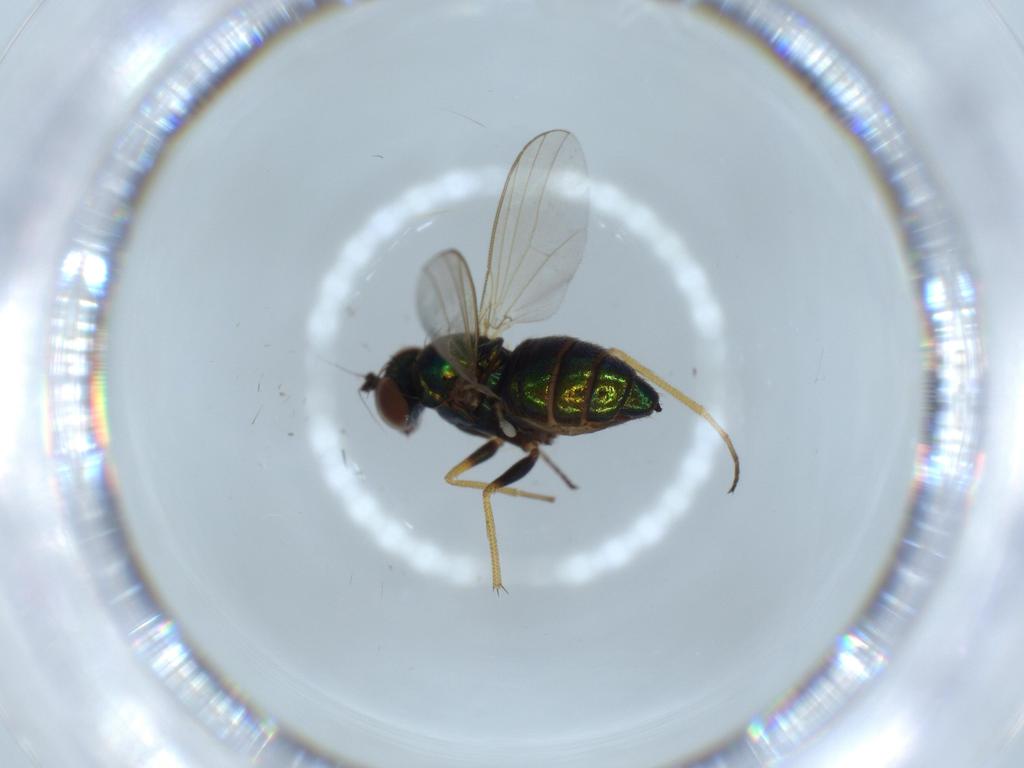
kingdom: Animalia
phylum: Arthropoda
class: Insecta
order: Diptera
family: Dolichopodidae
